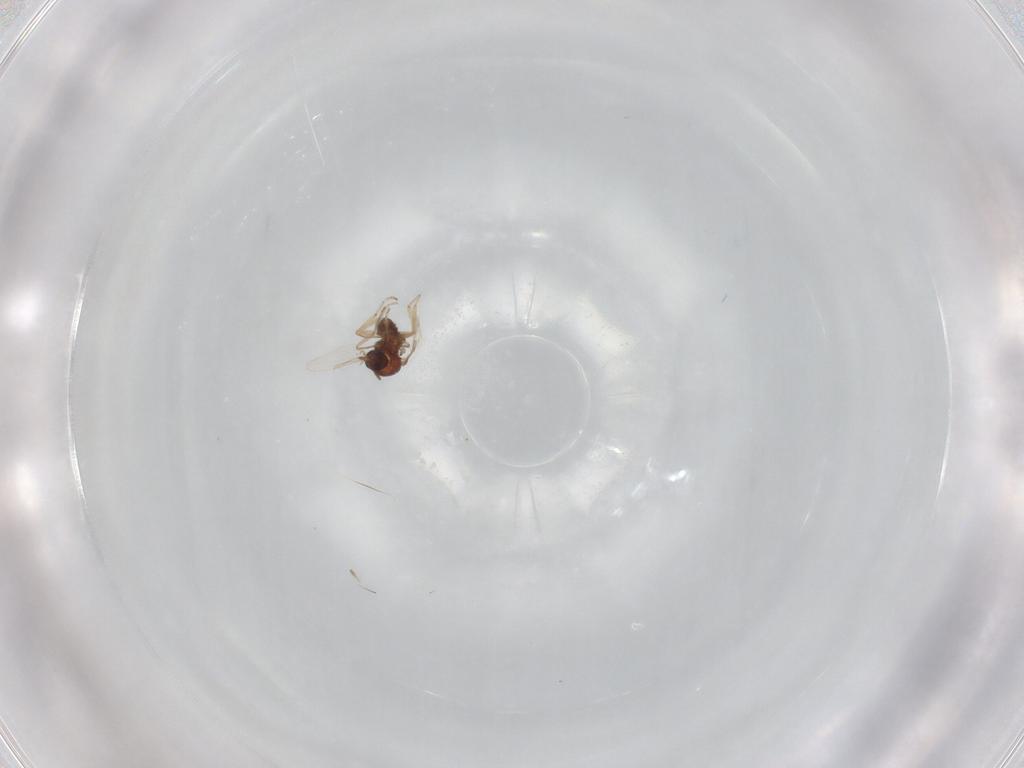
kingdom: Animalia
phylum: Arthropoda
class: Insecta
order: Diptera
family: Ceratopogonidae
